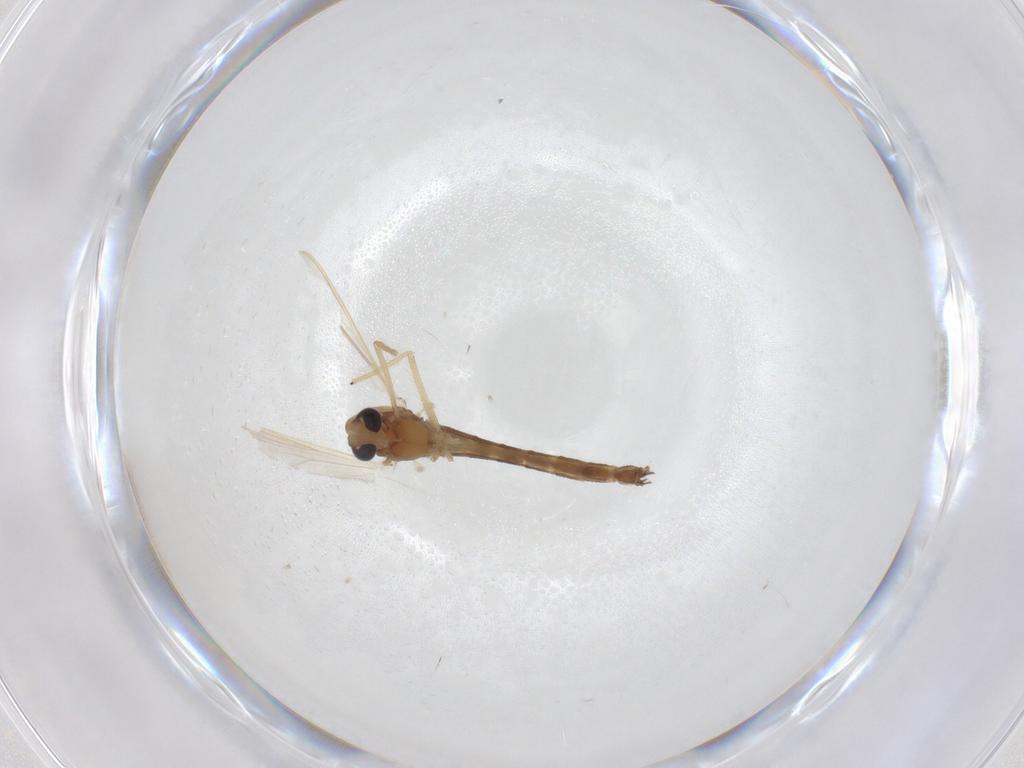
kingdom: Animalia
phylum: Arthropoda
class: Insecta
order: Diptera
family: Chironomidae
